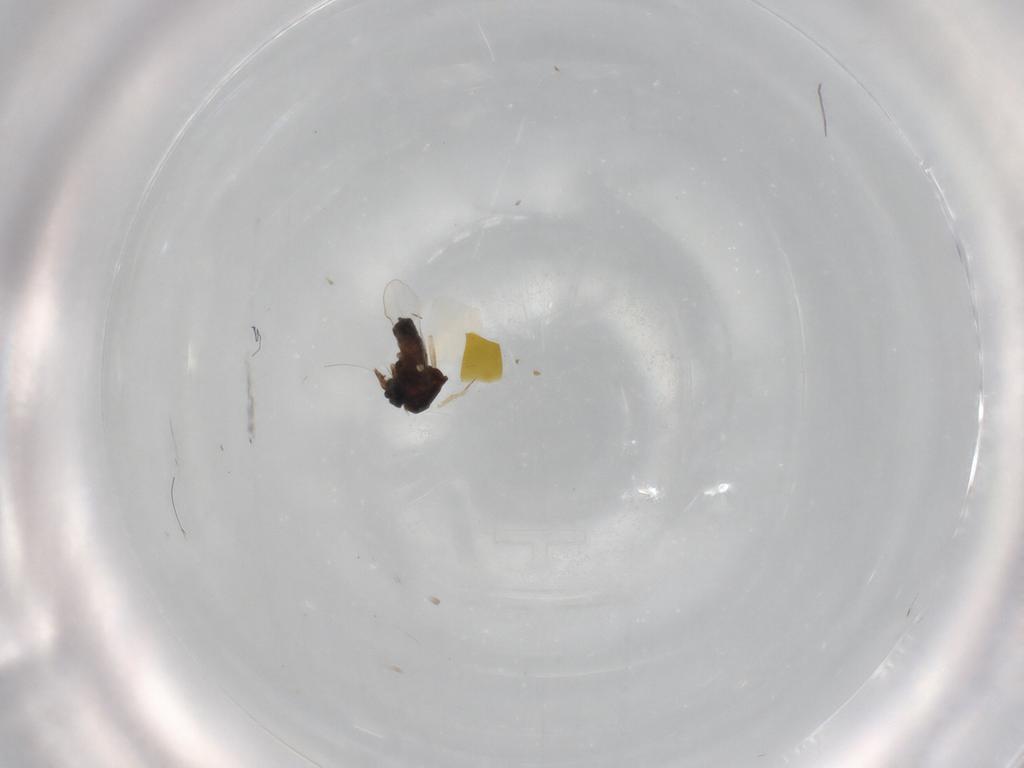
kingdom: Animalia
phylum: Arthropoda
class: Insecta
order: Diptera
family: Ceratopogonidae
